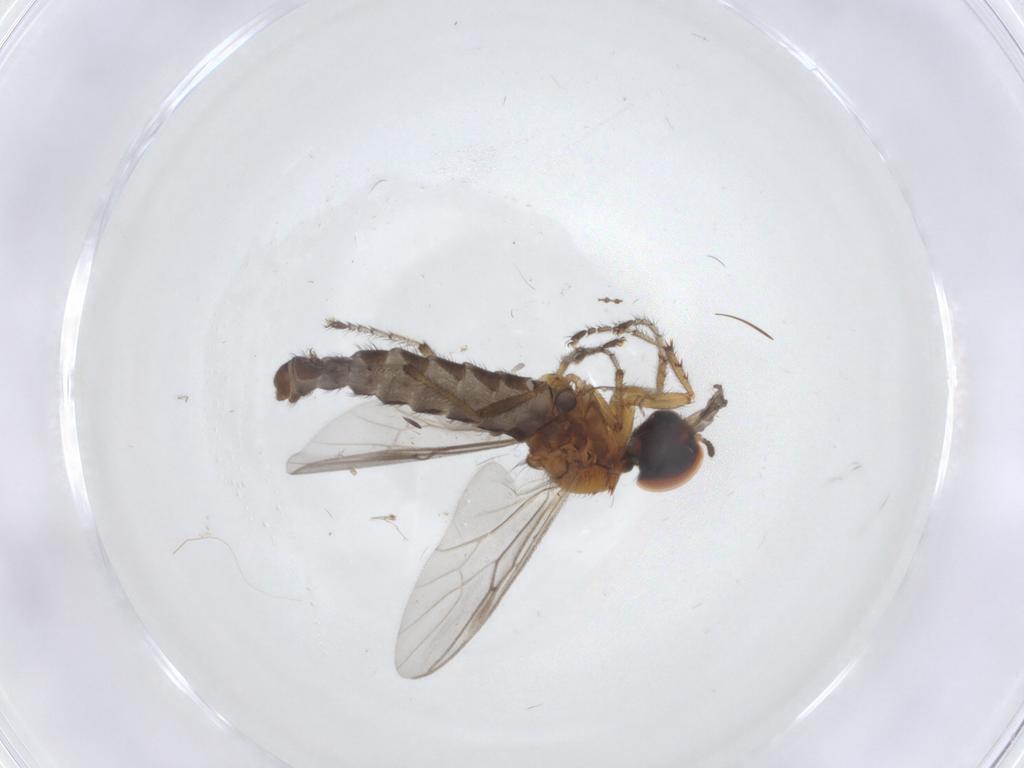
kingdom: Animalia
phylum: Arthropoda
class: Insecta
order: Diptera
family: Bibionidae
